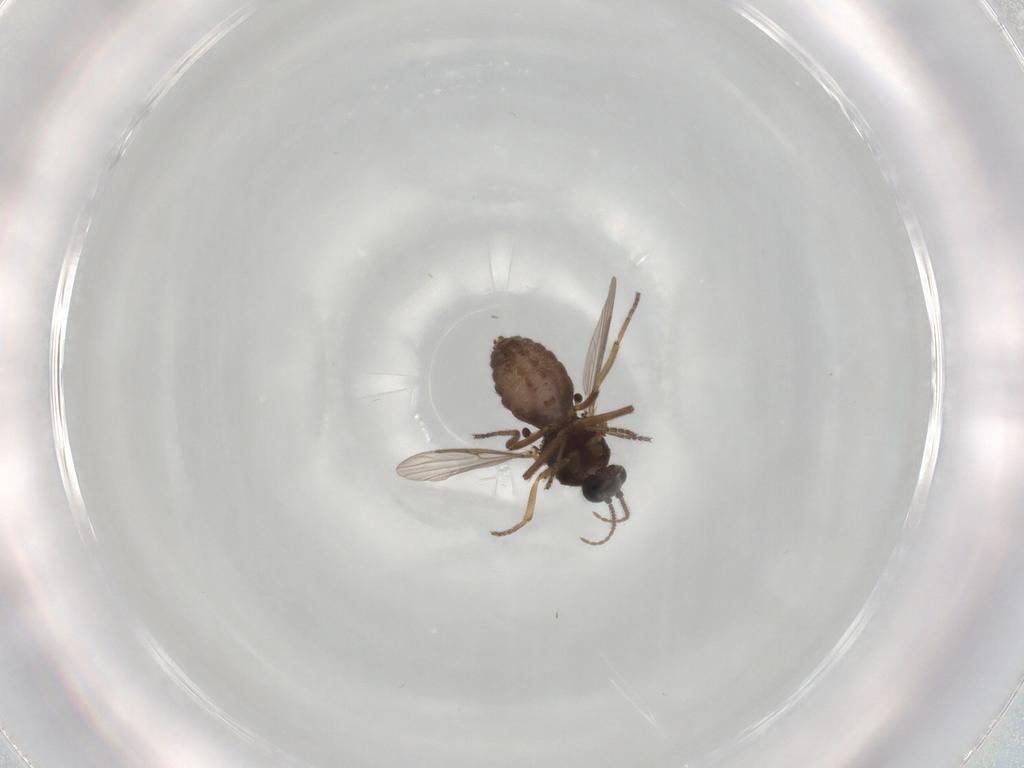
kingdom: Animalia
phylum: Arthropoda
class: Insecta
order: Diptera
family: Ceratopogonidae
